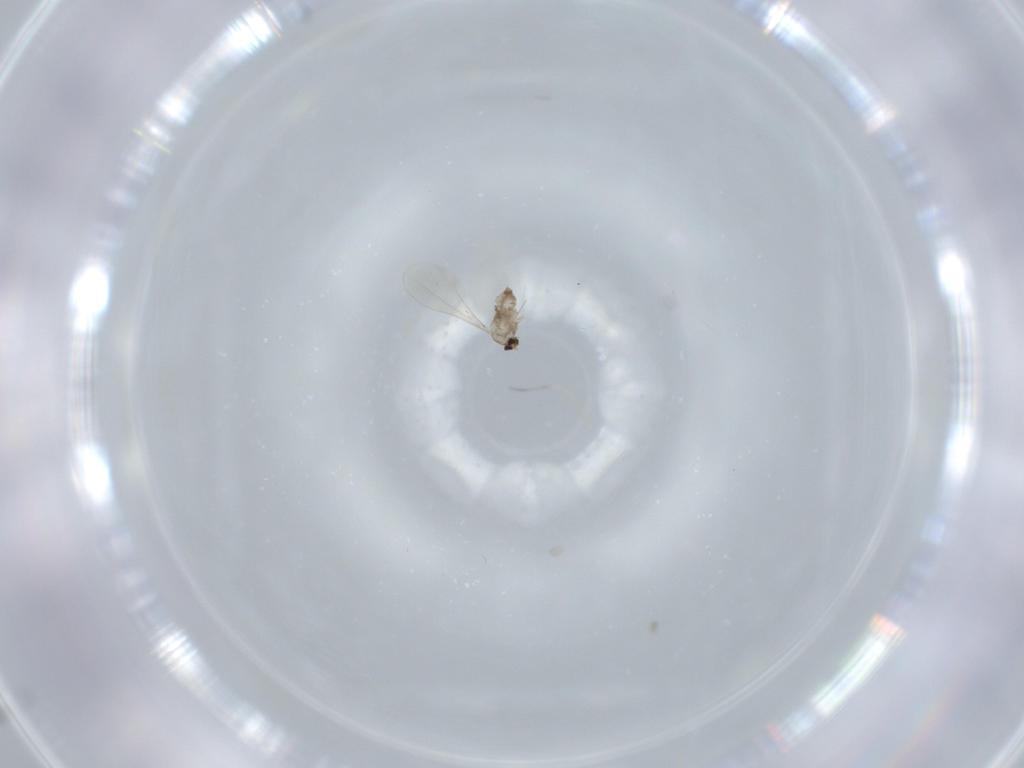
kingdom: Animalia
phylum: Arthropoda
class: Insecta
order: Diptera
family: Cecidomyiidae
